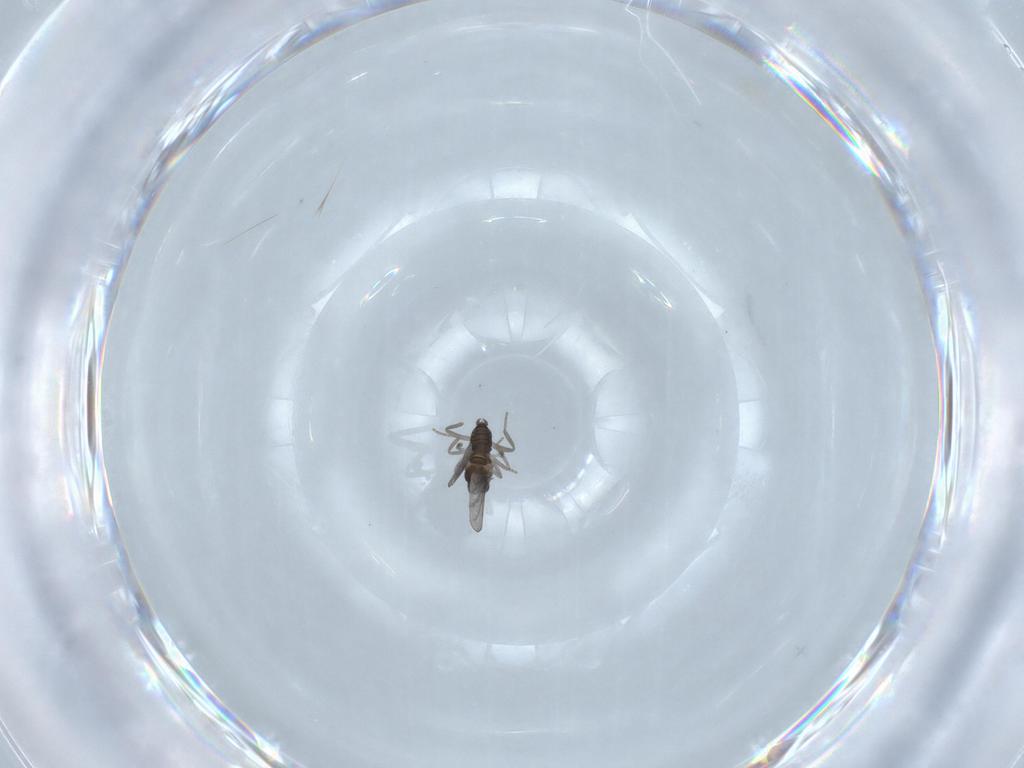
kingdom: Animalia
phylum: Arthropoda
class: Insecta
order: Diptera
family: Cecidomyiidae
